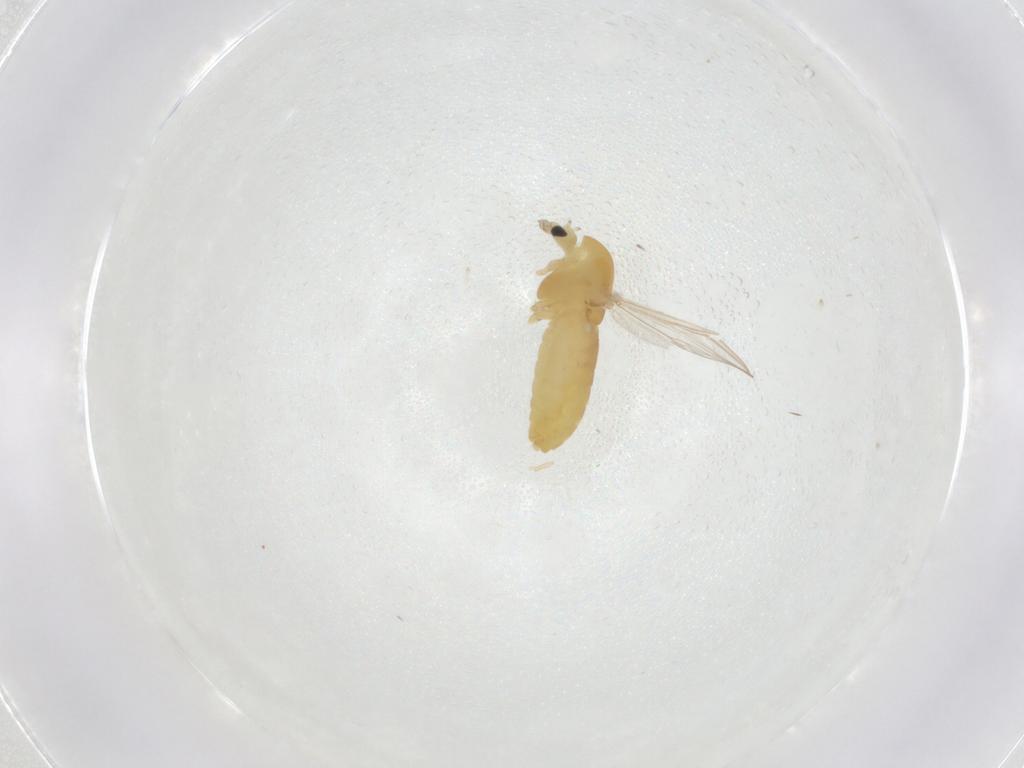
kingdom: Animalia
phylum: Arthropoda
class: Insecta
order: Diptera
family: Chironomidae
